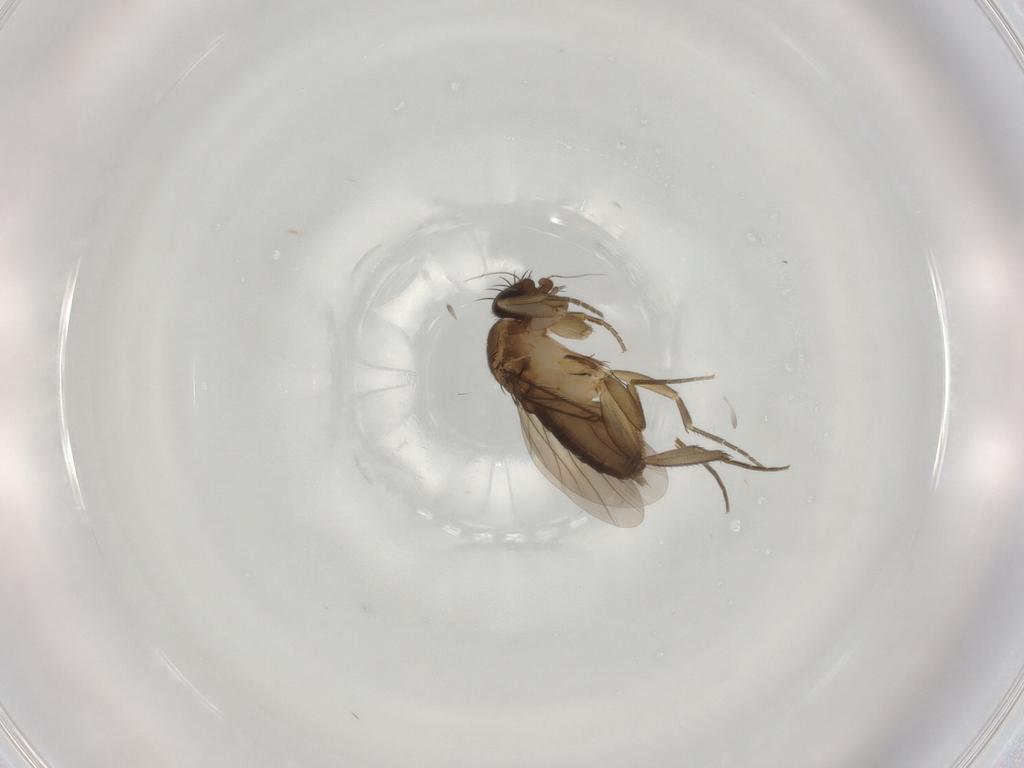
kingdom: Animalia
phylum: Arthropoda
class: Insecta
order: Diptera
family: Phoridae
